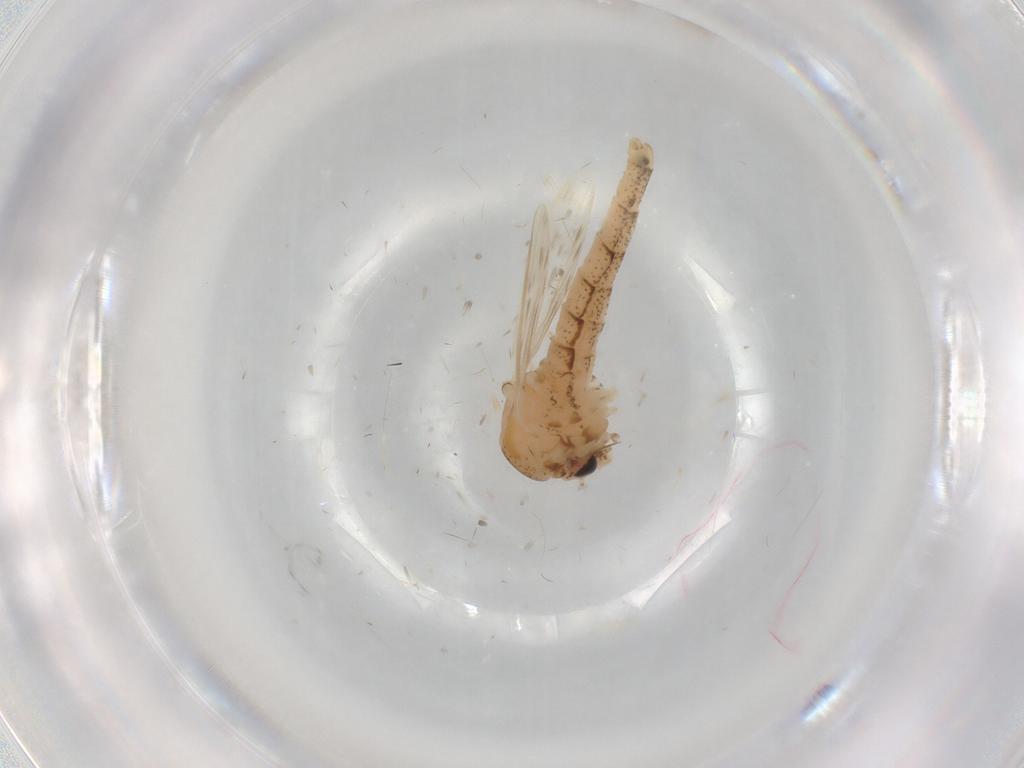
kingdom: Animalia
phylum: Arthropoda
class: Insecta
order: Diptera
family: Chaoboridae
